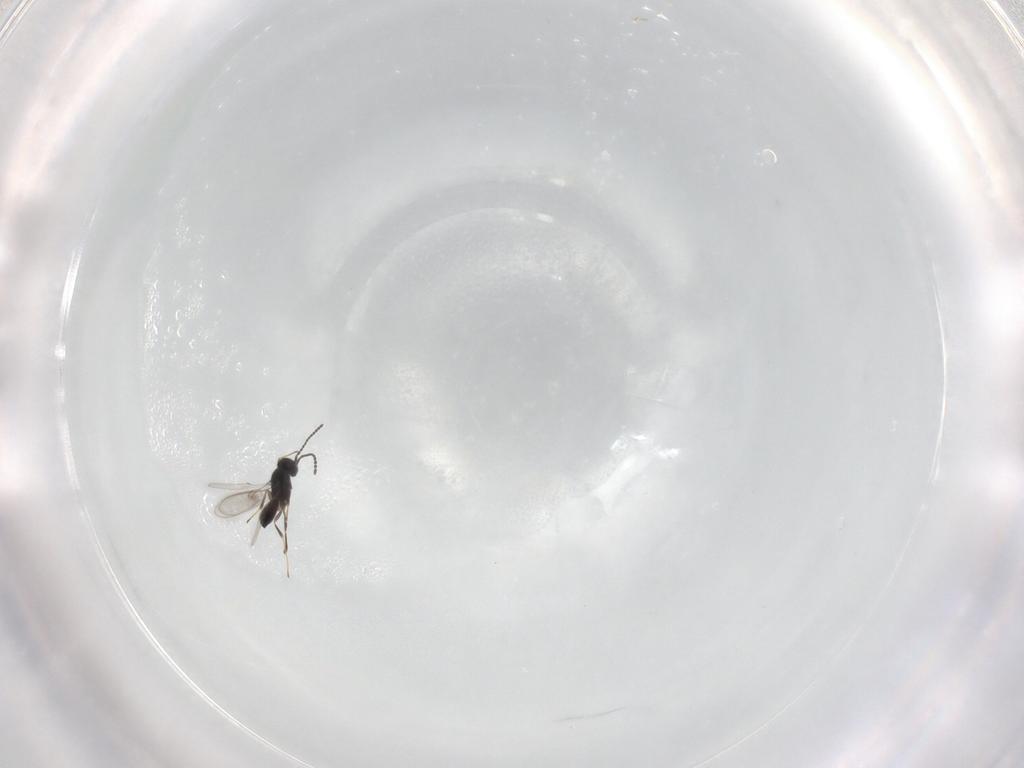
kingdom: Animalia
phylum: Arthropoda
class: Insecta
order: Hymenoptera
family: Scelionidae
